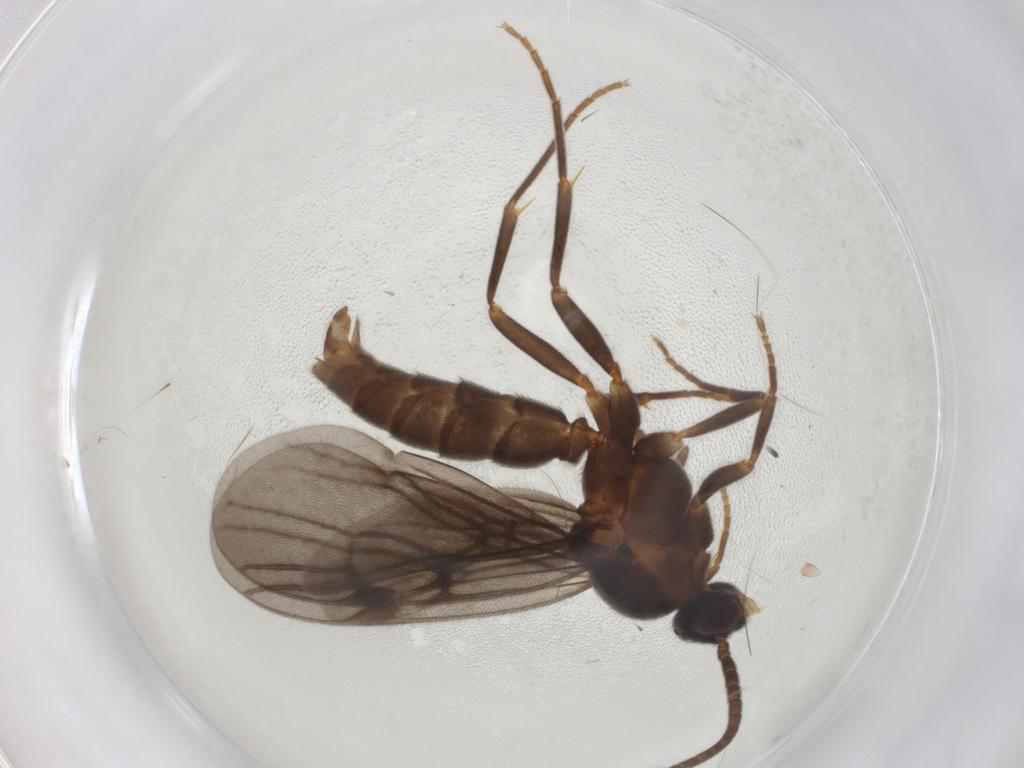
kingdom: Animalia
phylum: Arthropoda
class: Insecta
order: Hymenoptera
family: Formicidae
